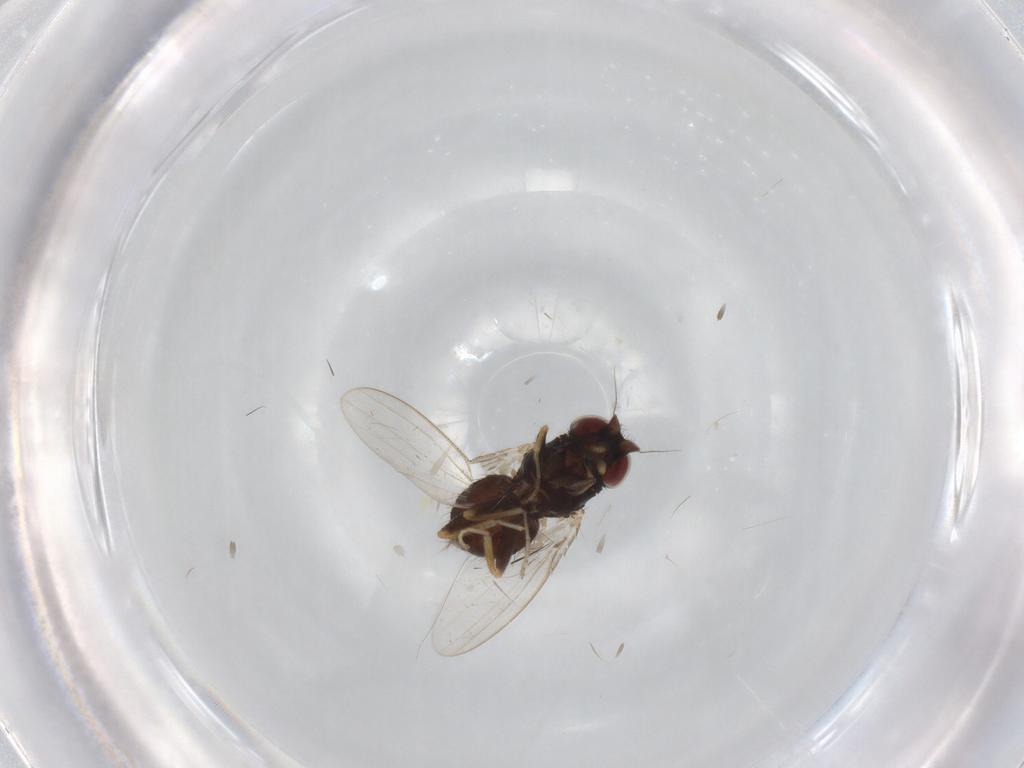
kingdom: Animalia
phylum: Arthropoda
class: Insecta
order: Diptera
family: Milichiidae
